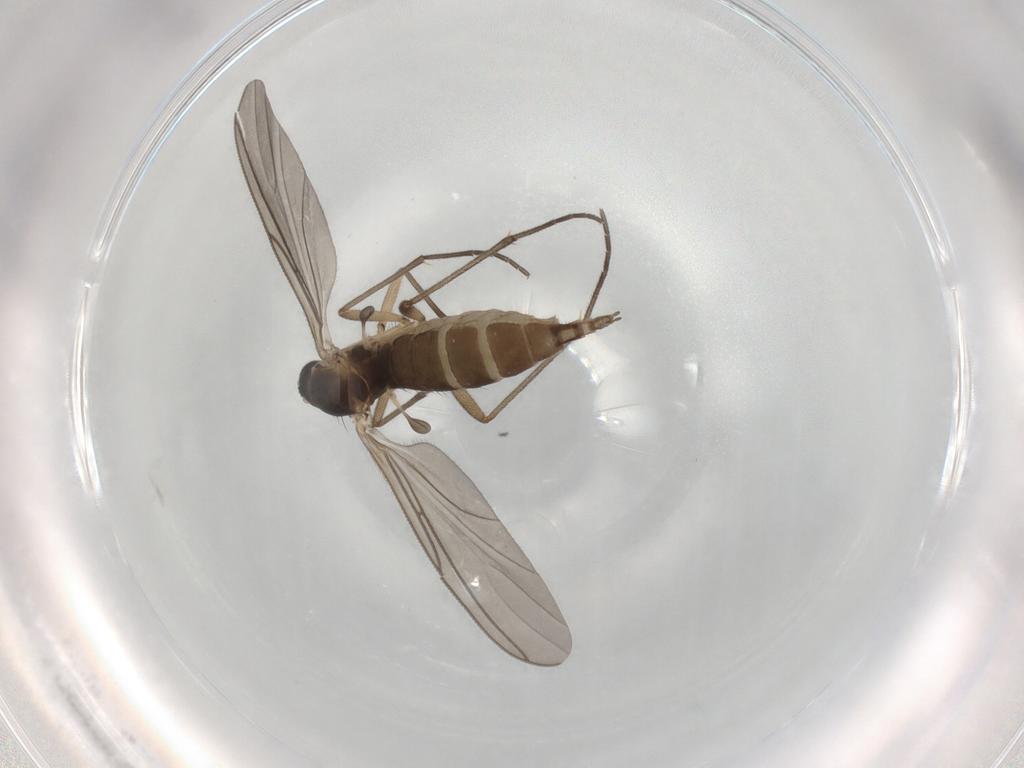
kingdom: Animalia
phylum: Arthropoda
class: Insecta
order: Diptera
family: Sciaridae
